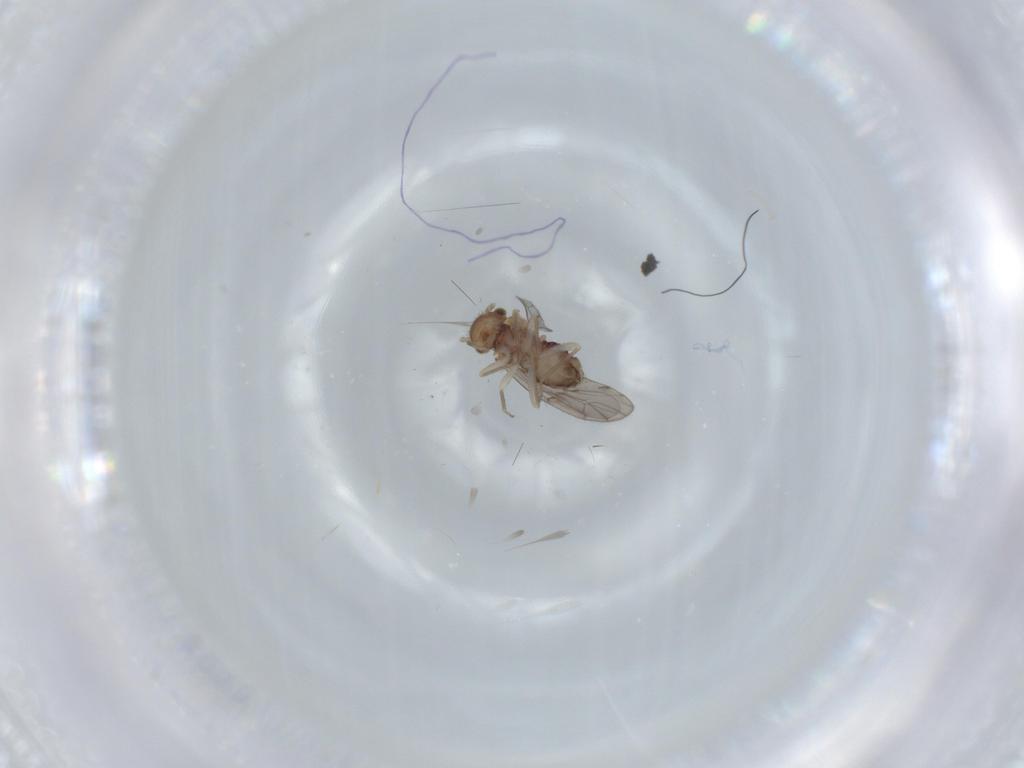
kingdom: Animalia
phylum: Arthropoda
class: Insecta
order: Psocodea
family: Ectopsocidae
